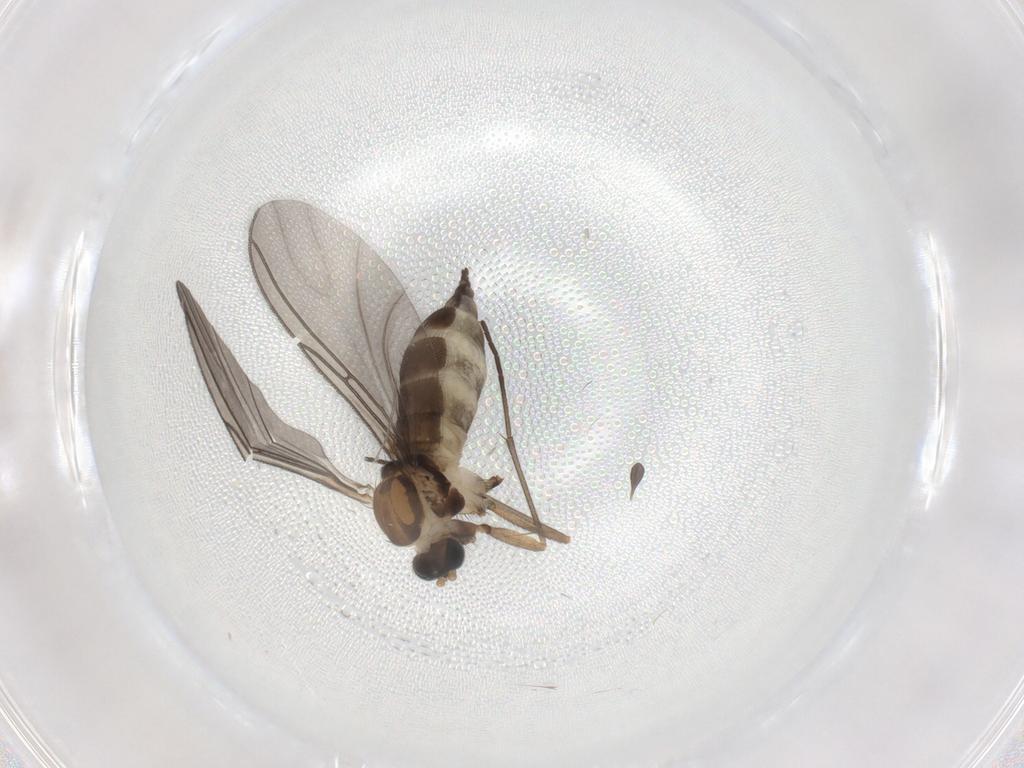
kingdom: Animalia
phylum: Arthropoda
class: Insecta
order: Diptera
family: Sciaridae
